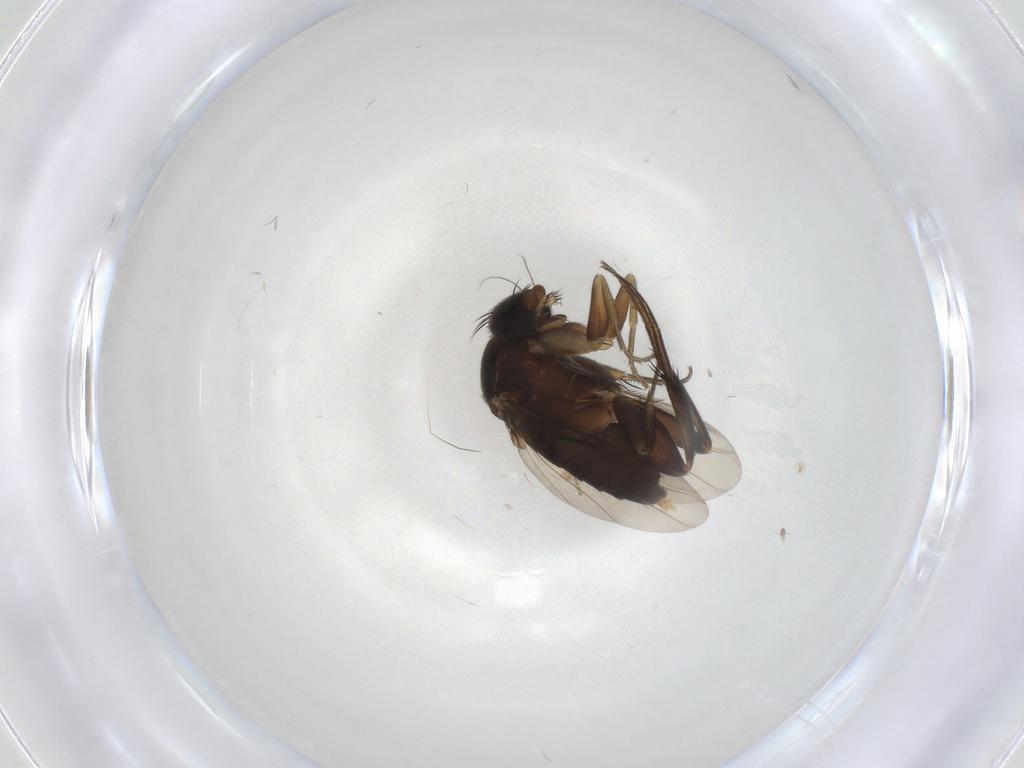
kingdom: Animalia
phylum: Arthropoda
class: Insecta
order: Diptera
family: Phoridae
